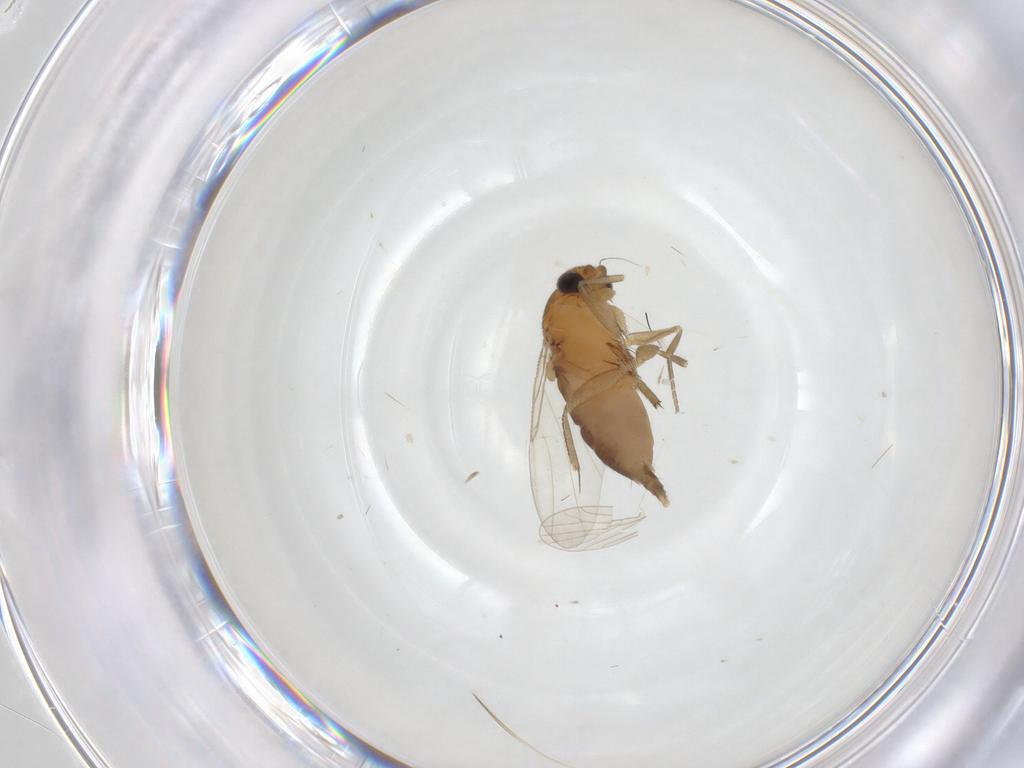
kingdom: Animalia
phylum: Arthropoda
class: Insecta
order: Diptera
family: Phoridae
